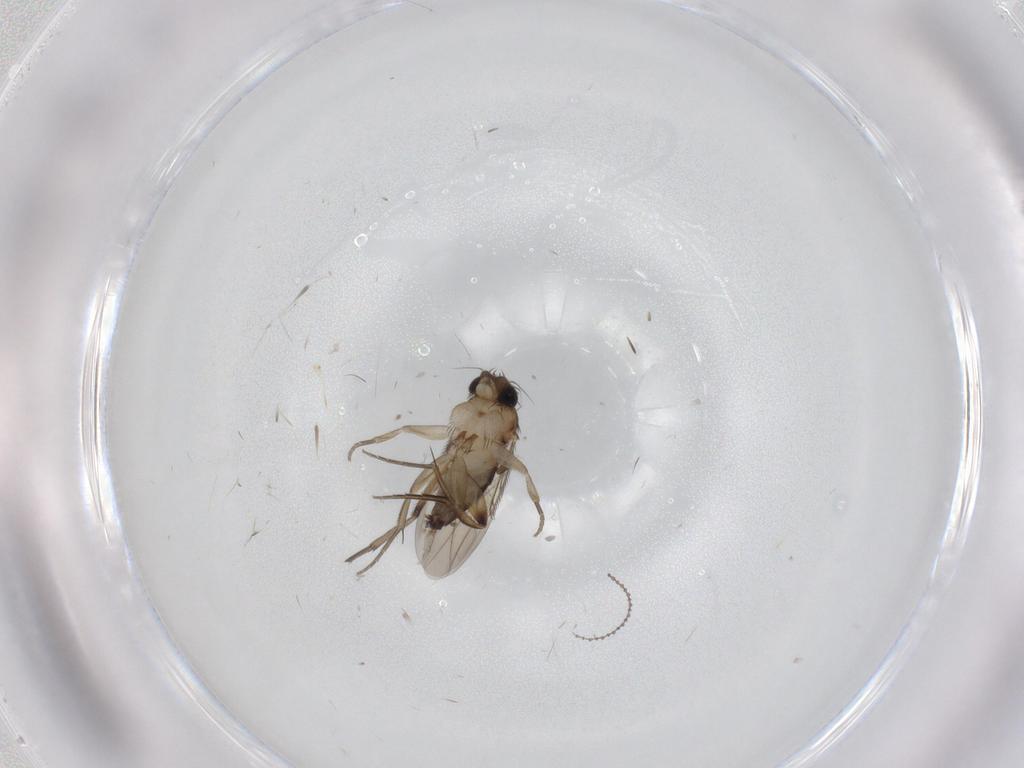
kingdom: Animalia
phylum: Arthropoda
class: Insecta
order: Diptera
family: Phoridae
